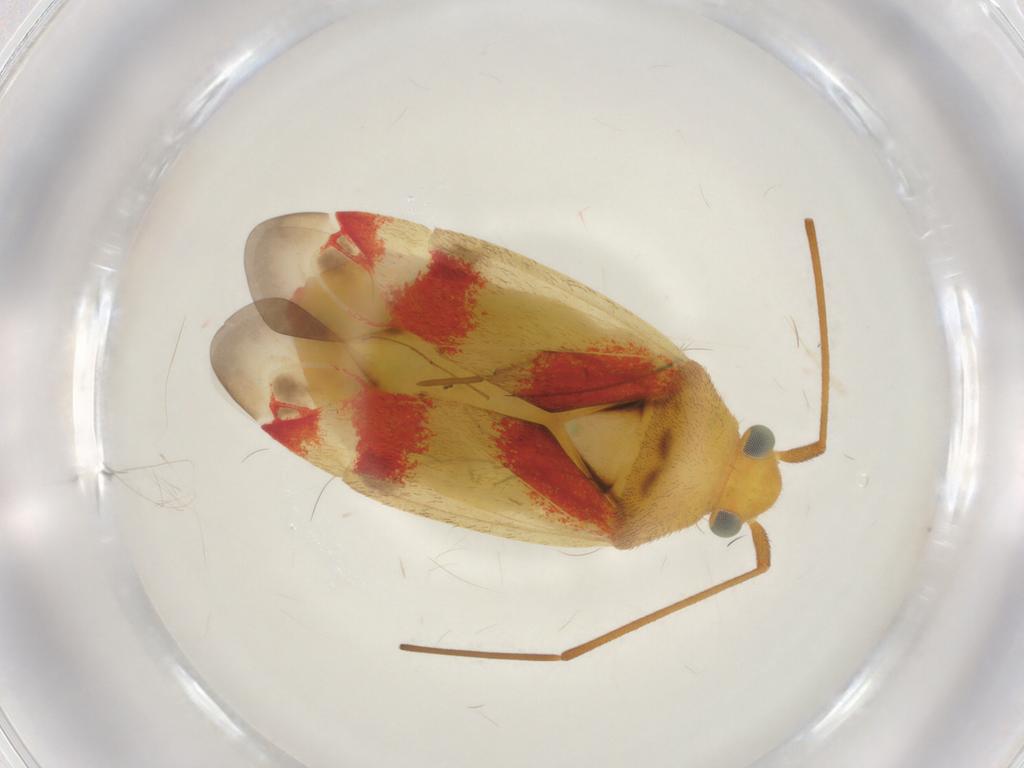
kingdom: Animalia
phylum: Arthropoda
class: Insecta
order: Hemiptera
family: Miridae
